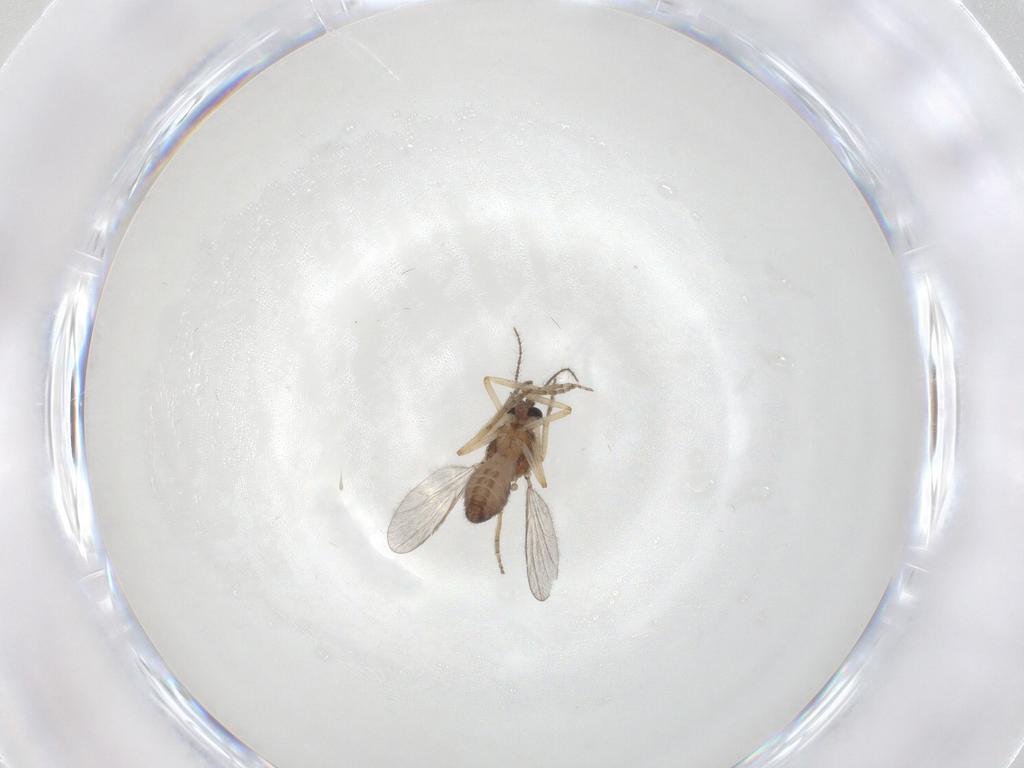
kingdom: Animalia
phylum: Arthropoda
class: Insecta
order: Diptera
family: Ceratopogonidae
